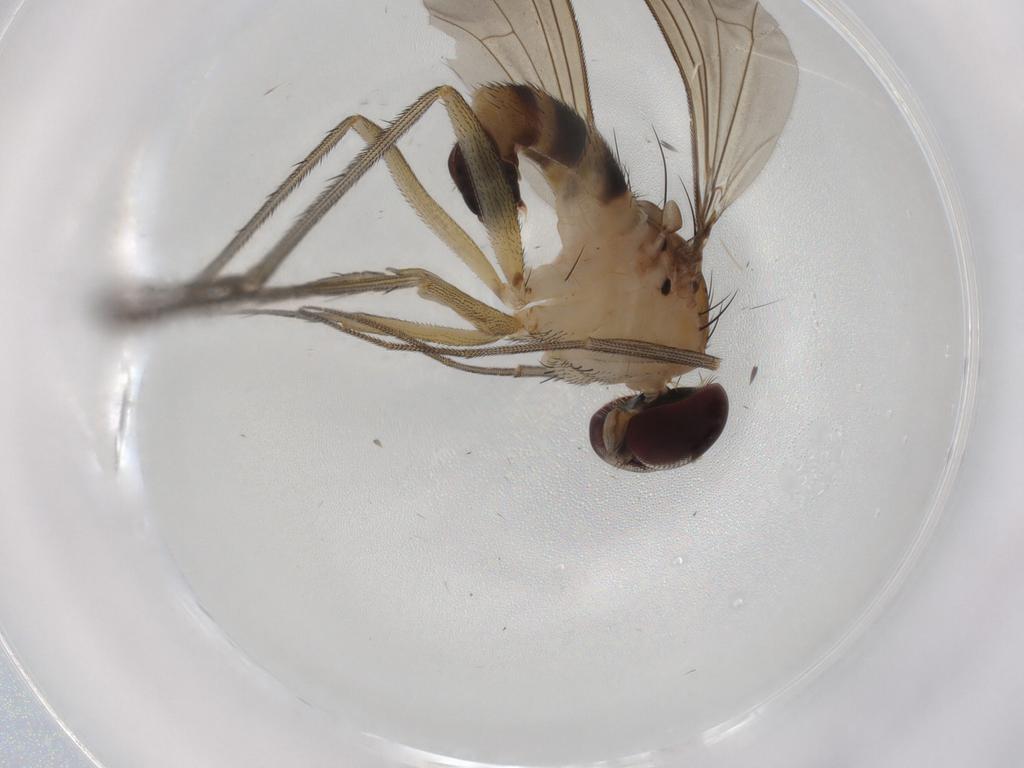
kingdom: Animalia
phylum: Arthropoda
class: Insecta
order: Diptera
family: Dolichopodidae
